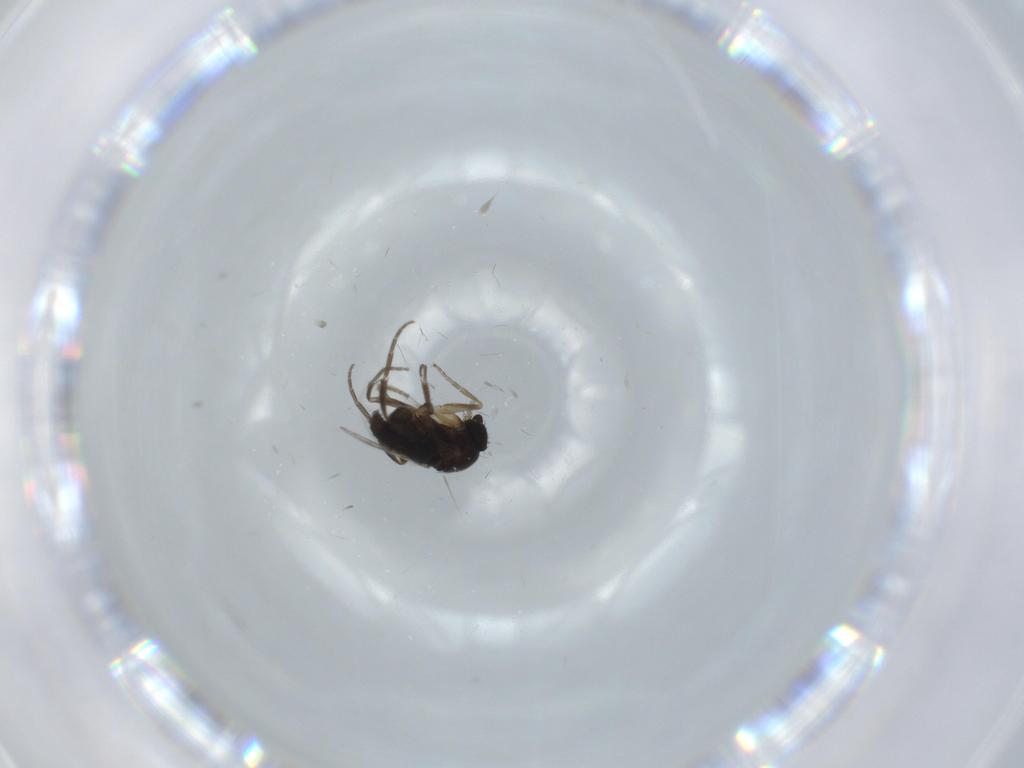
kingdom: Animalia
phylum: Arthropoda
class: Insecta
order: Diptera
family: Phoridae
